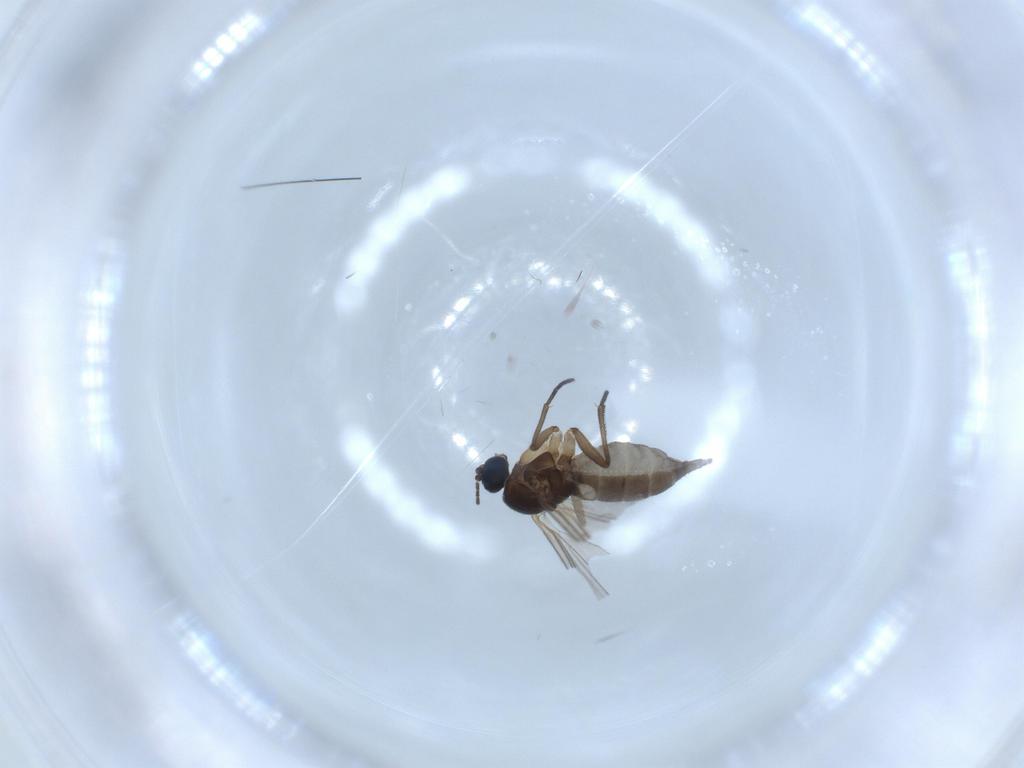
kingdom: Animalia
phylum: Arthropoda
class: Insecta
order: Diptera
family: Sciaridae
